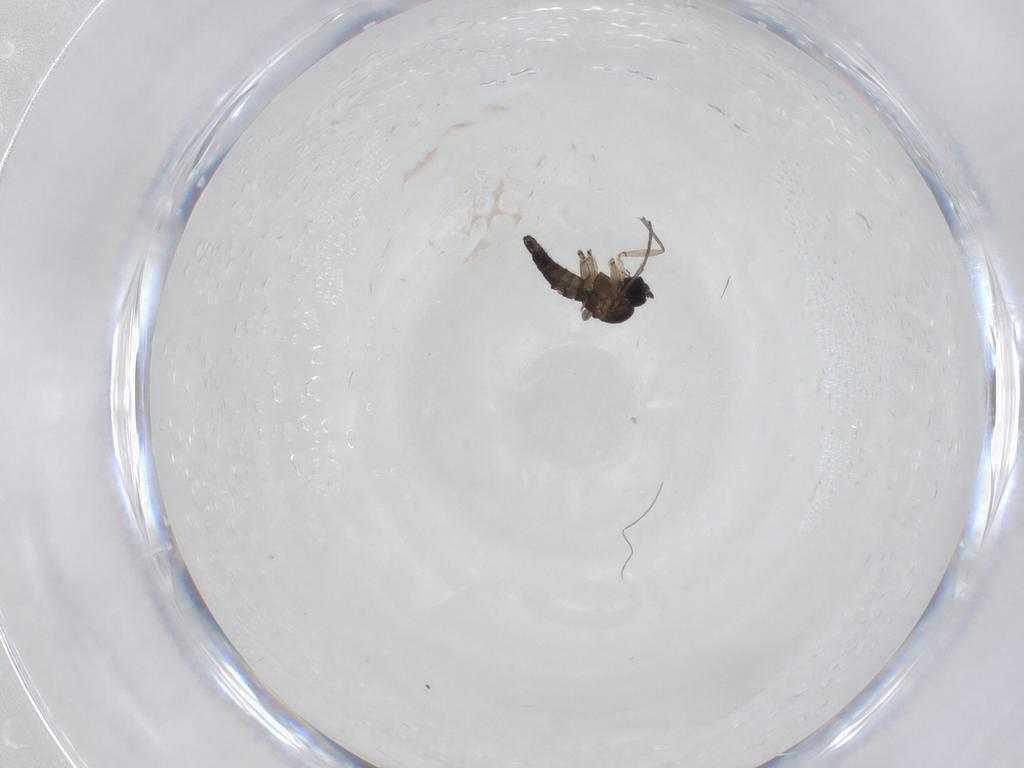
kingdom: Animalia
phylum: Arthropoda
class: Insecta
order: Diptera
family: Sciaridae
